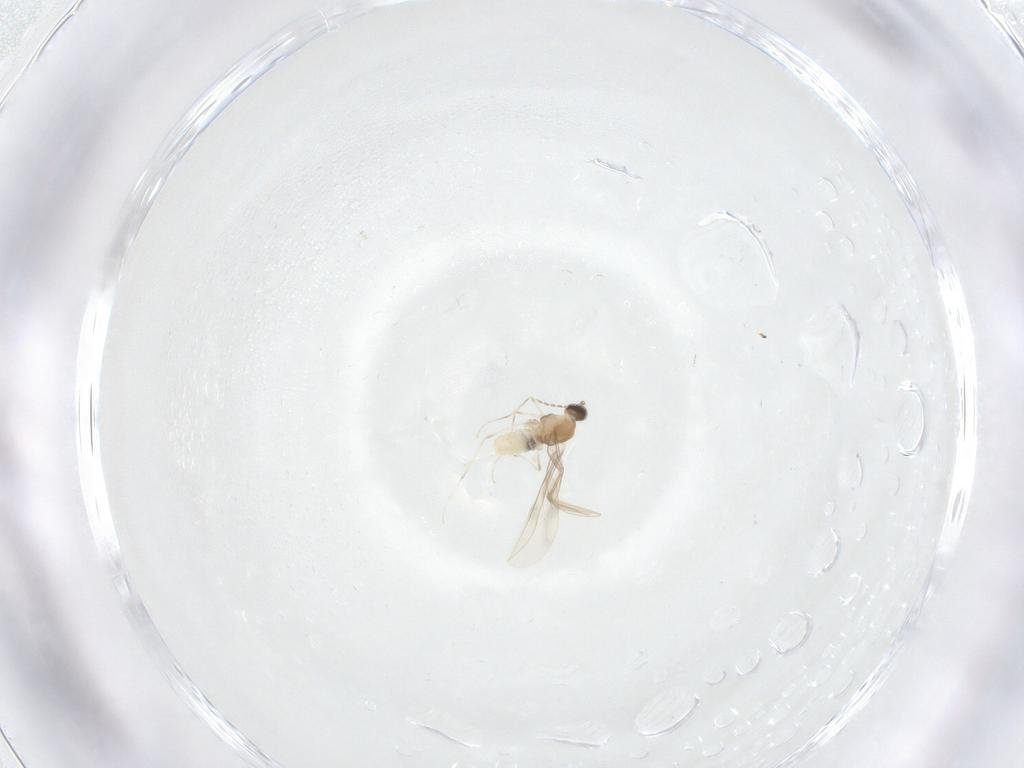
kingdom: Animalia
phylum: Arthropoda
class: Insecta
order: Diptera
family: Cecidomyiidae
